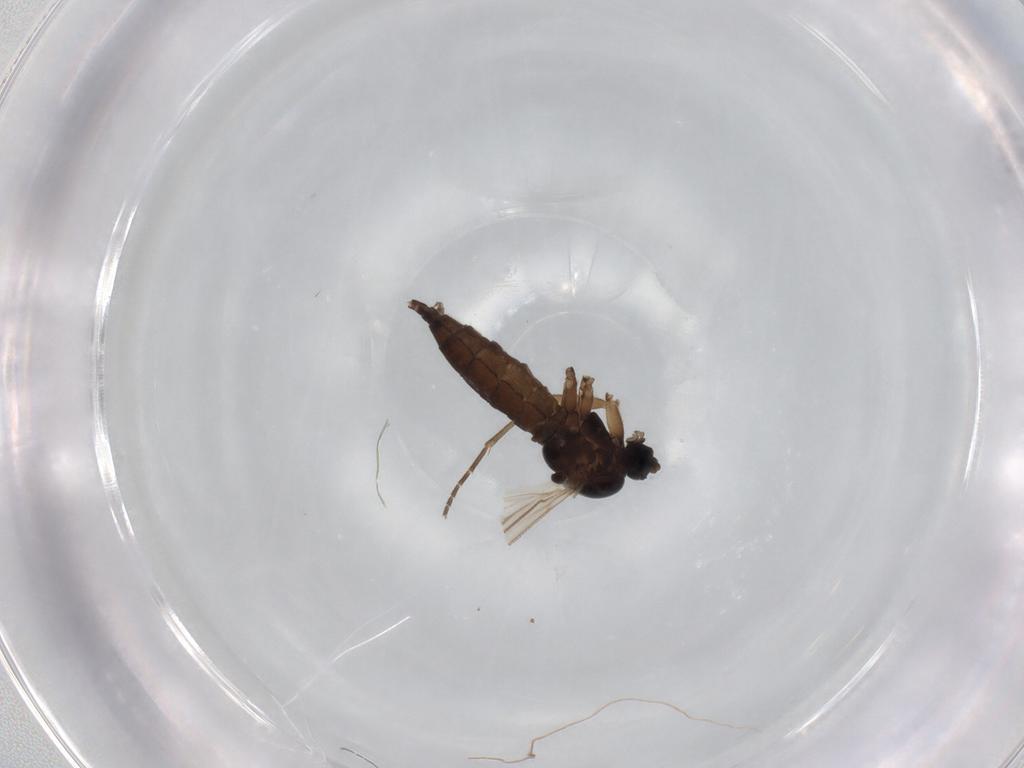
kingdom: Animalia
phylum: Arthropoda
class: Insecta
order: Diptera
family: Sciaridae
